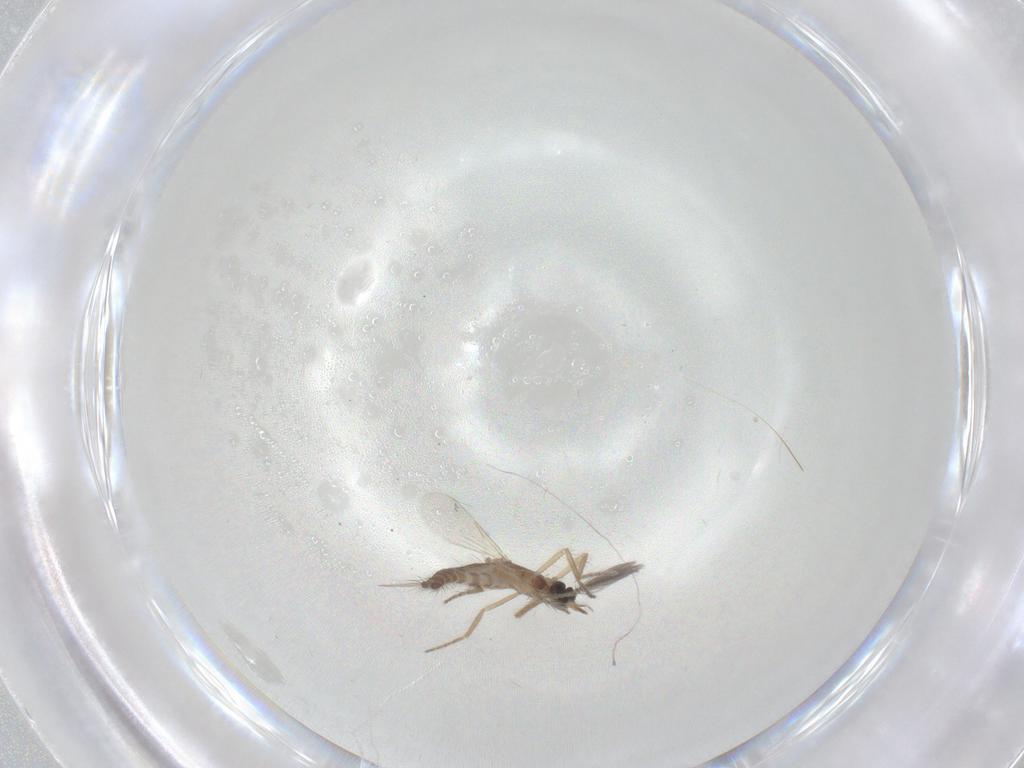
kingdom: Animalia
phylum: Arthropoda
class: Insecta
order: Diptera
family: Ceratopogonidae
